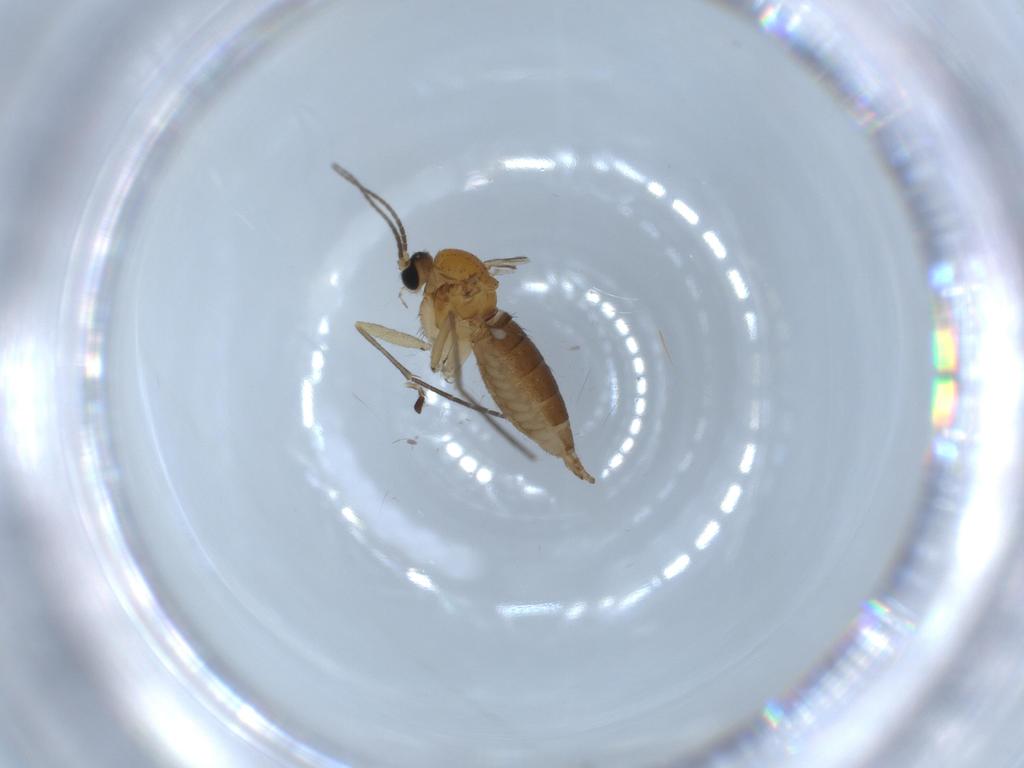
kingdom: Animalia
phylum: Arthropoda
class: Insecta
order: Diptera
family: Sciaridae
